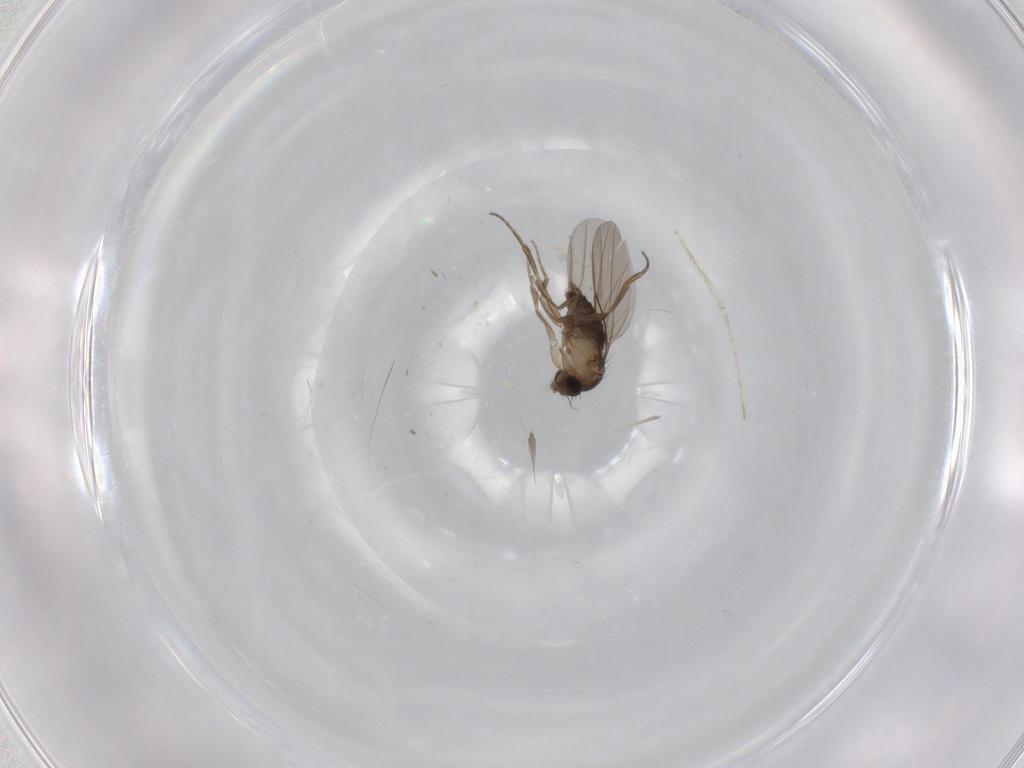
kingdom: Animalia
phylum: Arthropoda
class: Insecta
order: Diptera
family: Phoridae
